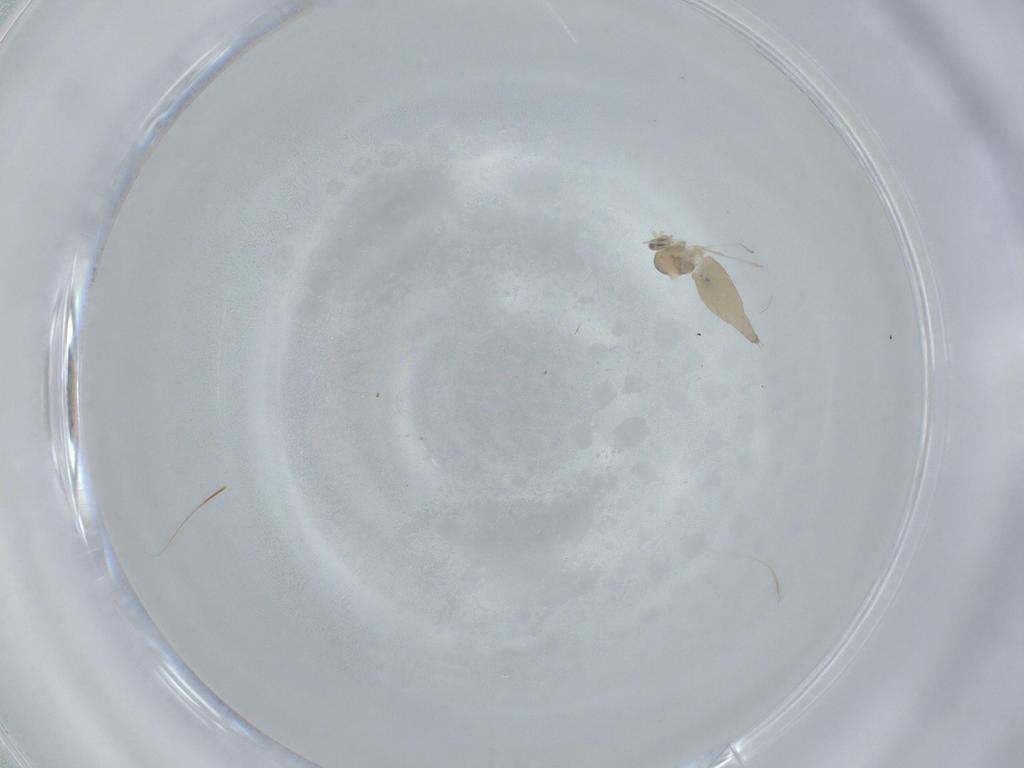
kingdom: Animalia
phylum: Arthropoda
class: Insecta
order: Diptera
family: Cecidomyiidae
